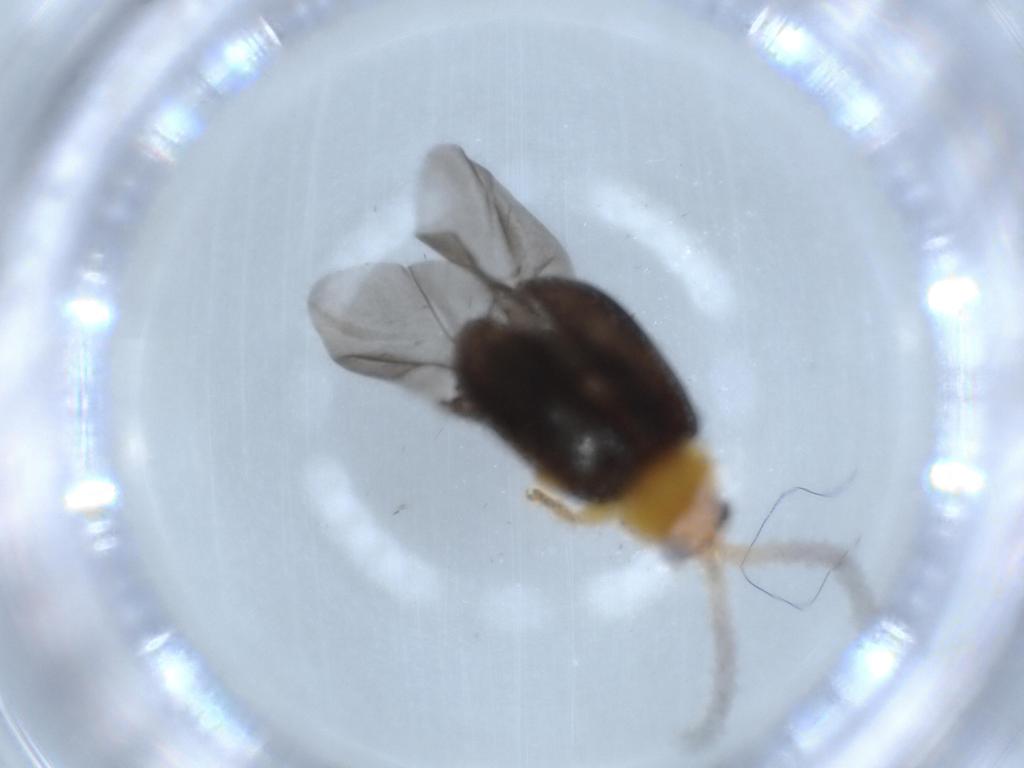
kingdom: Animalia
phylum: Arthropoda
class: Insecta
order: Coleoptera
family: Chrysomelidae
